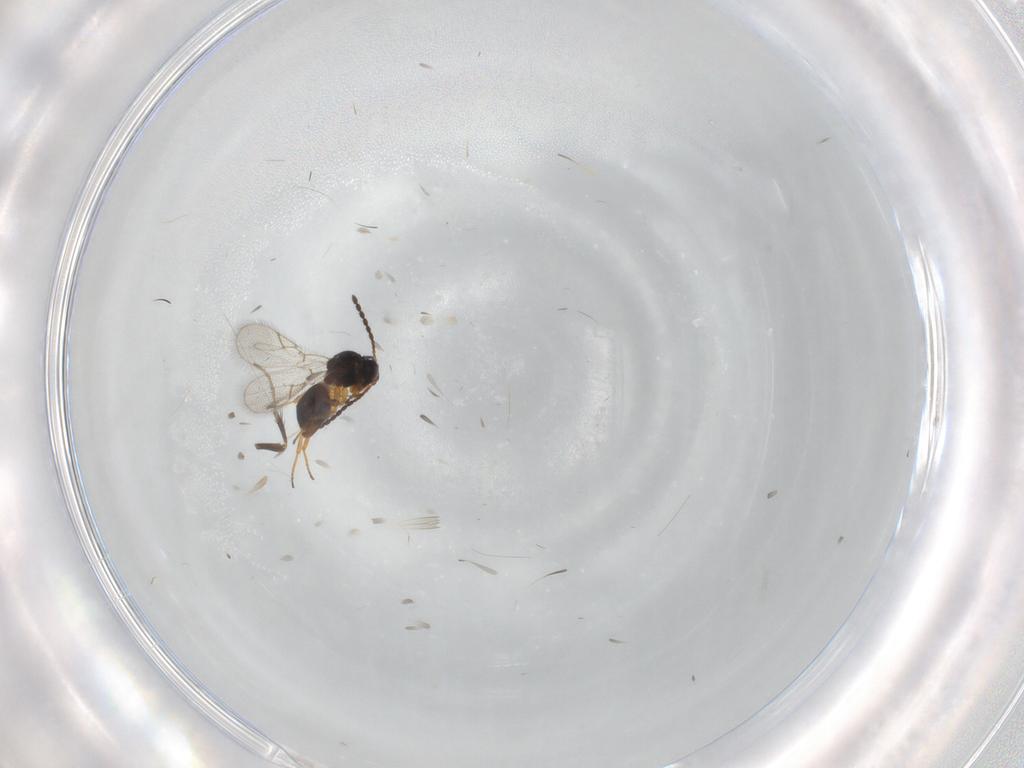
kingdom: Animalia
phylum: Arthropoda
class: Insecta
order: Hymenoptera
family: Figitidae
